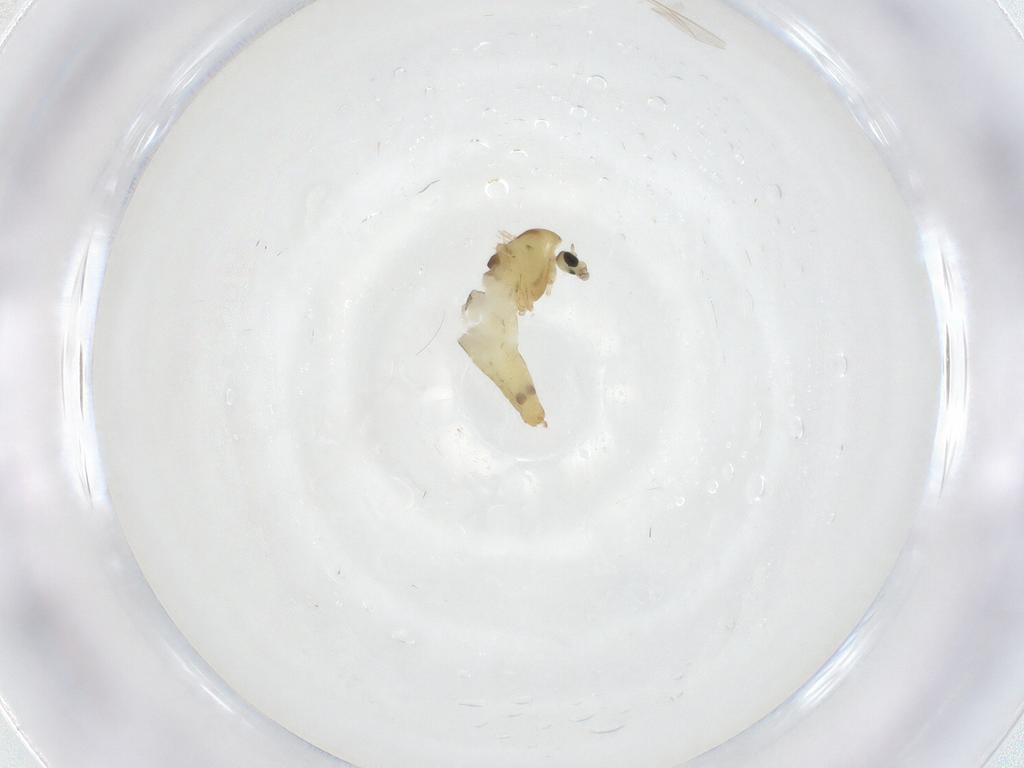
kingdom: Animalia
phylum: Arthropoda
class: Insecta
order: Diptera
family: Chironomidae
